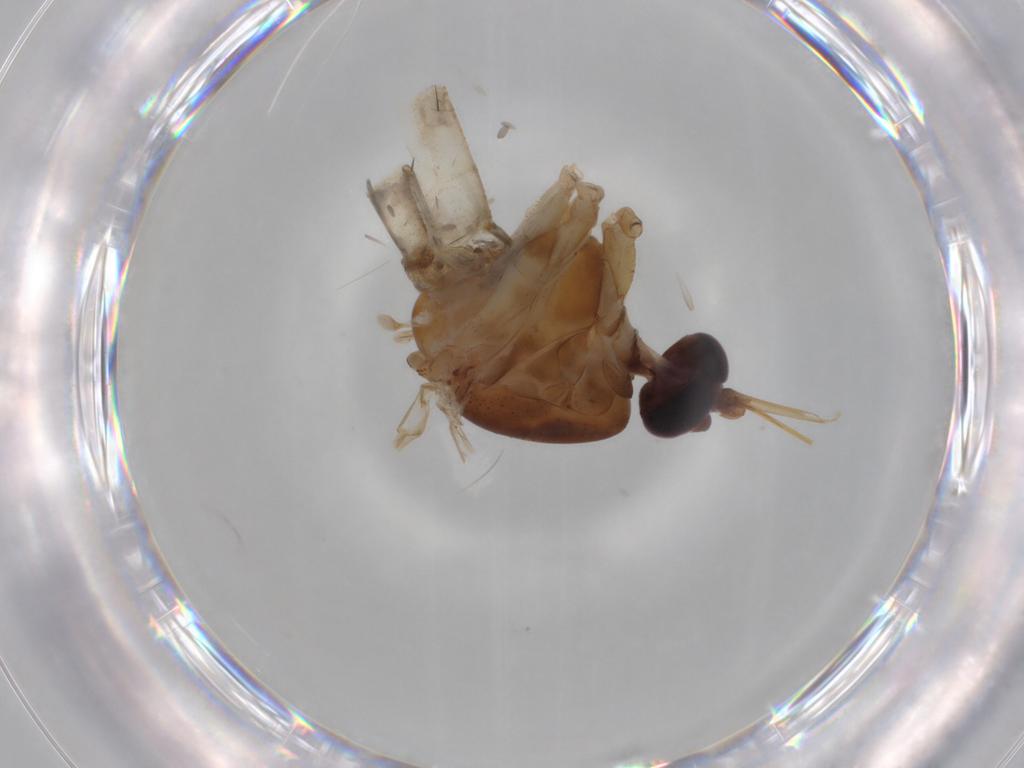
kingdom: Animalia
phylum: Arthropoda
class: Insecta
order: Diptera
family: Culicidae
